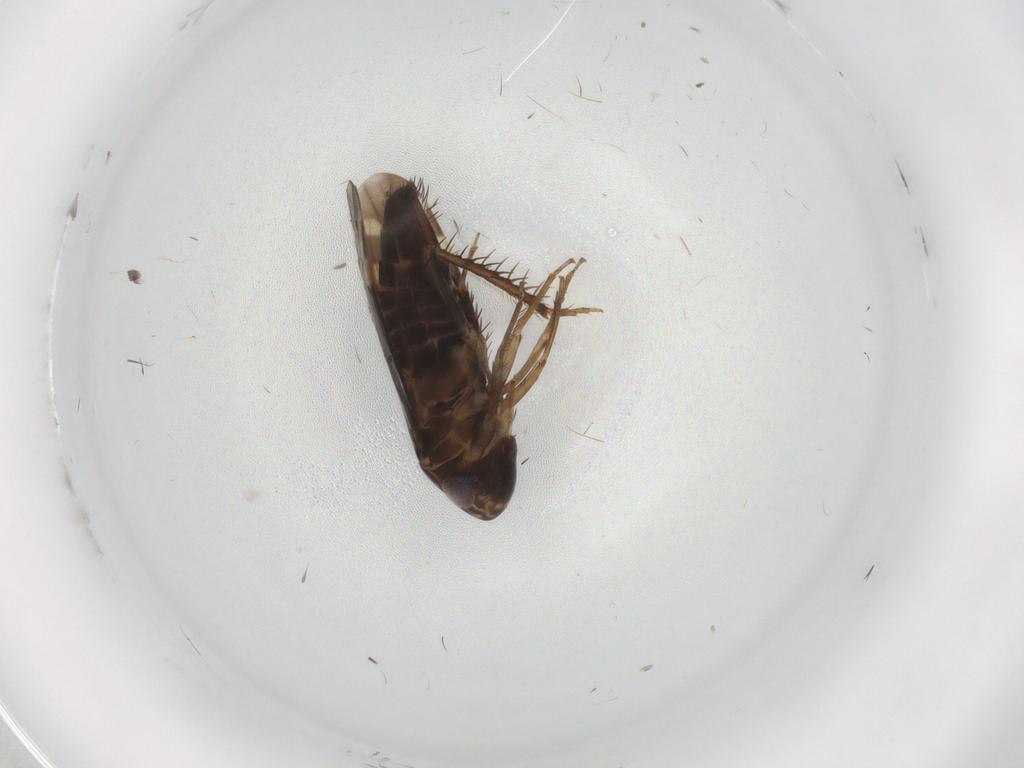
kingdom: Animalia
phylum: Arthropoda
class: Insecta
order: Hemiptera
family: Cicadellidae
